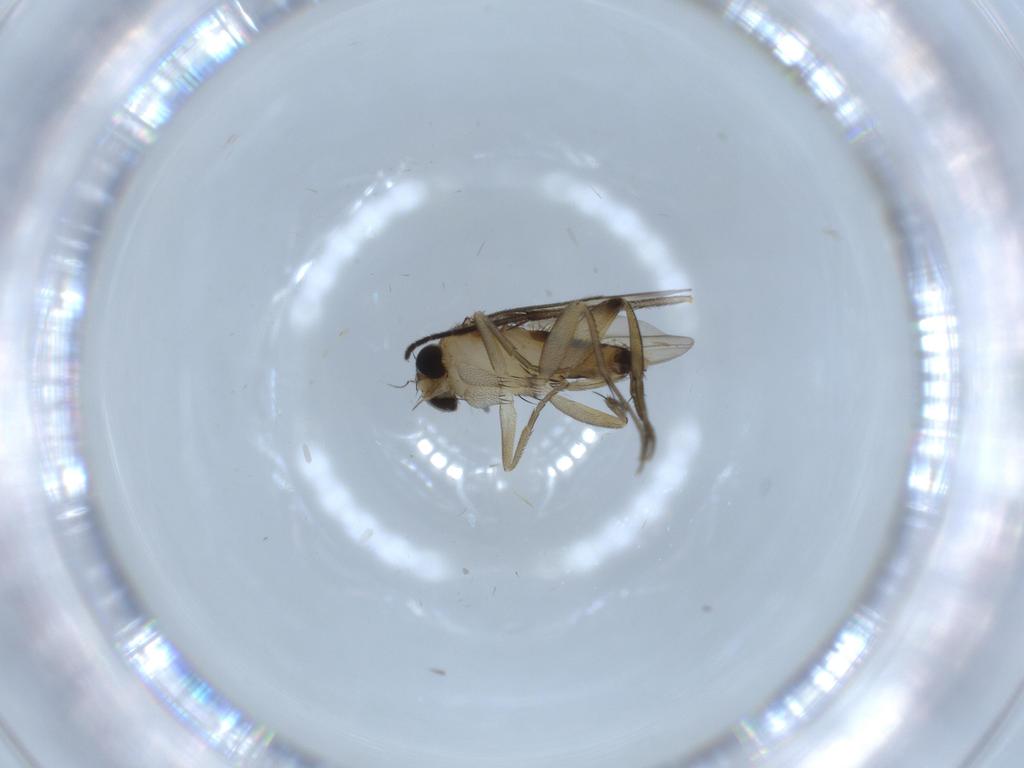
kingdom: Animalia
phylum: Arthropoda
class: Insecta
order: Diptera
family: Phoridae
